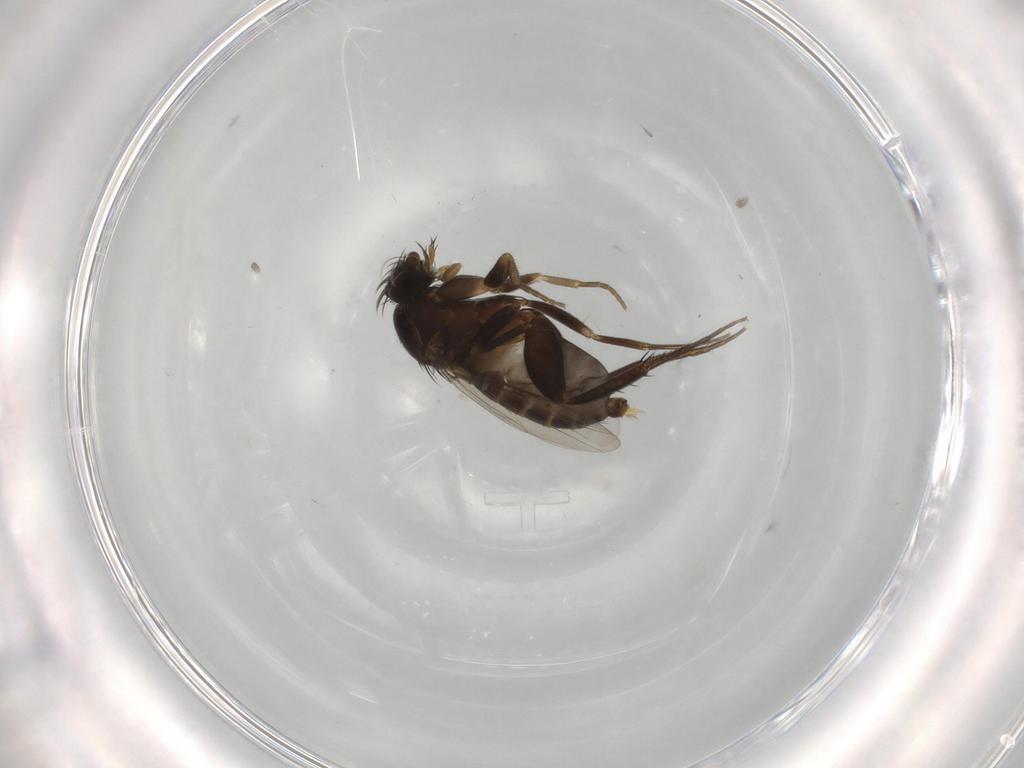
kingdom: Animalia
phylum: Arthropoda
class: Insecta
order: Diptera
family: Phoridae
